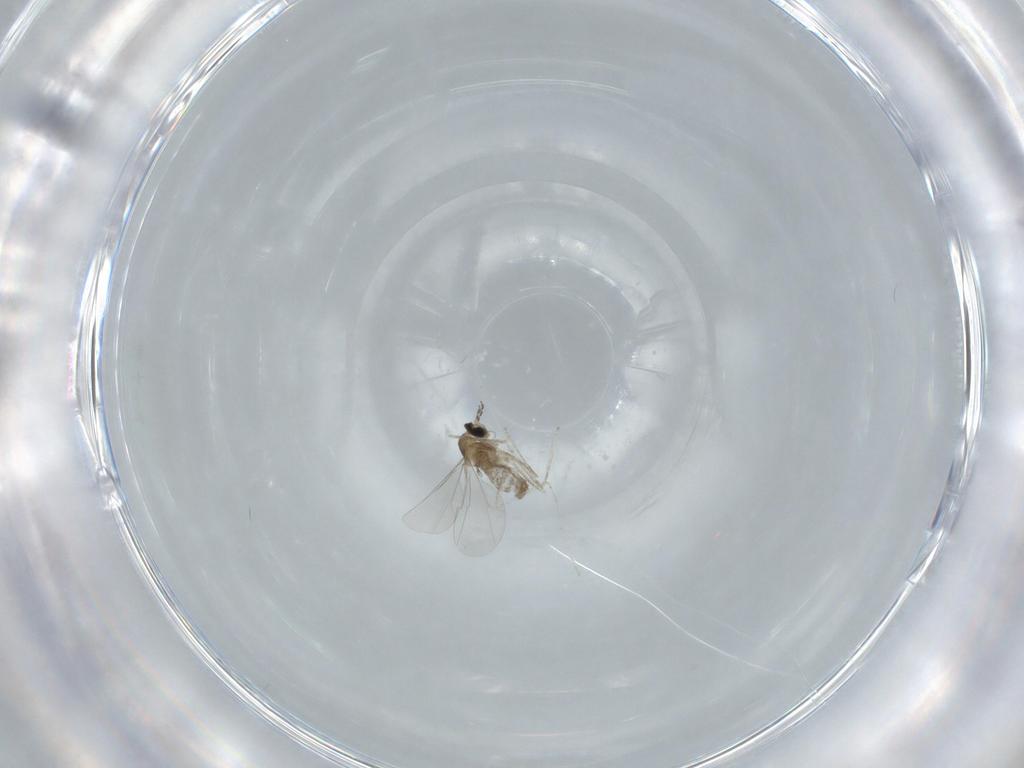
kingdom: Animalia
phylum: Arthropoda
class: Insecta
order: Diptera
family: Cecidomyiidae
